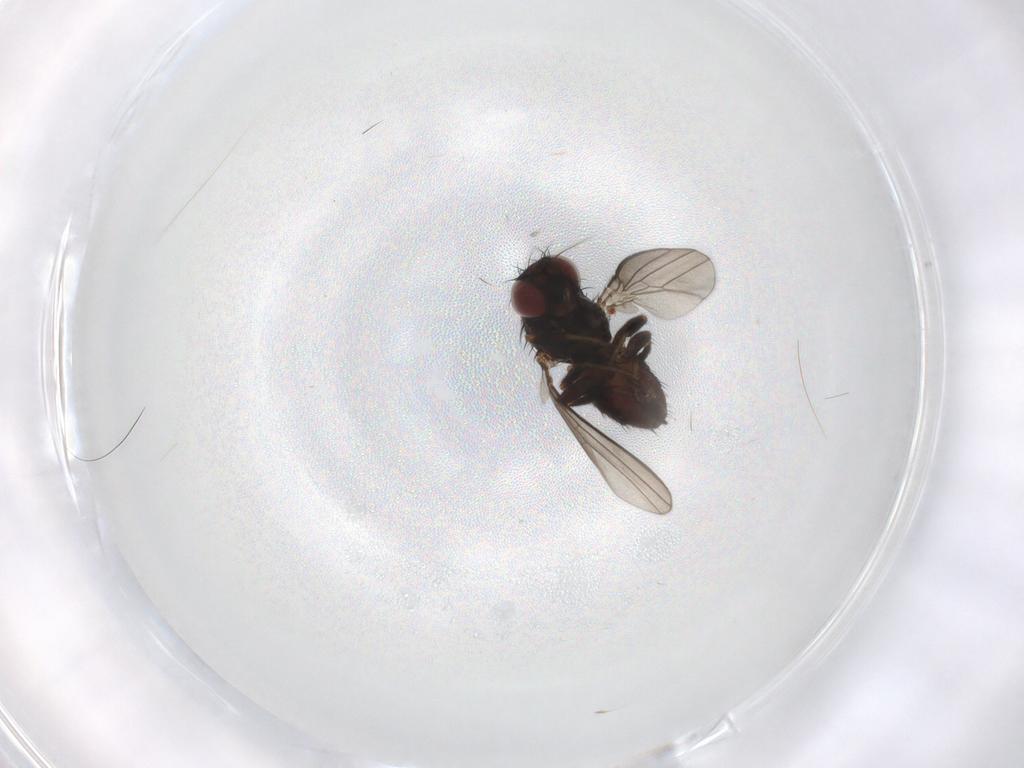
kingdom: Animalia
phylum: Arthropoda
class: Insecta
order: Diptera
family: Milichiidae
